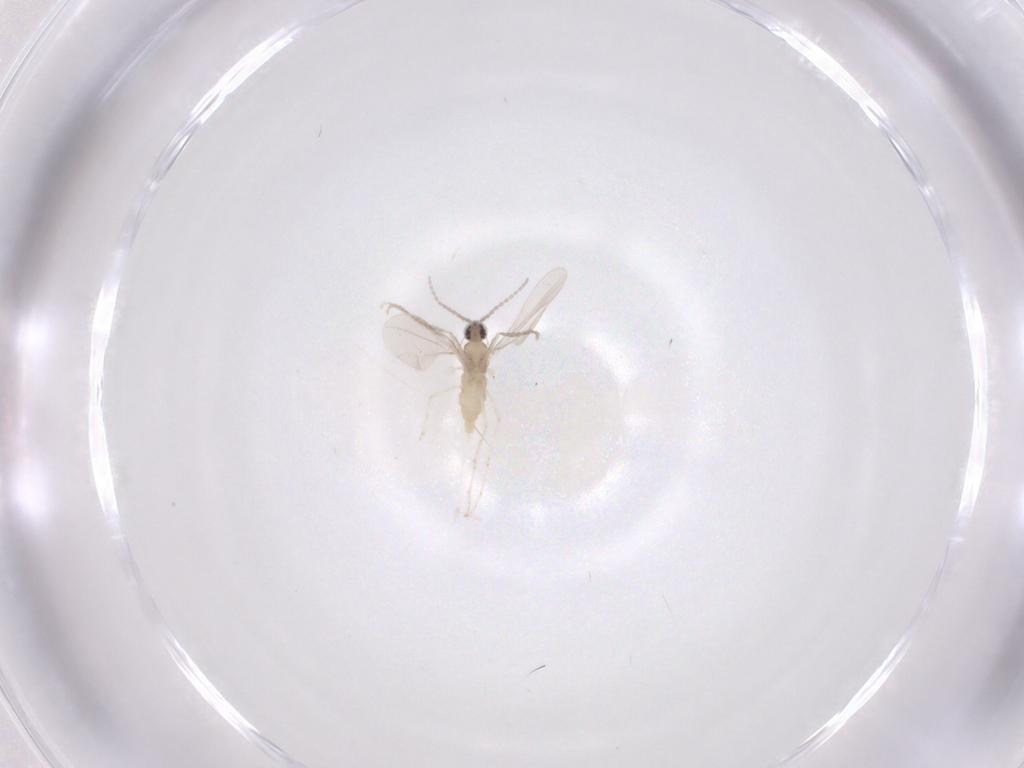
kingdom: Animalia
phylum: Arthropoda
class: Insecta
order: Diptera
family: Cecidomyiidae
